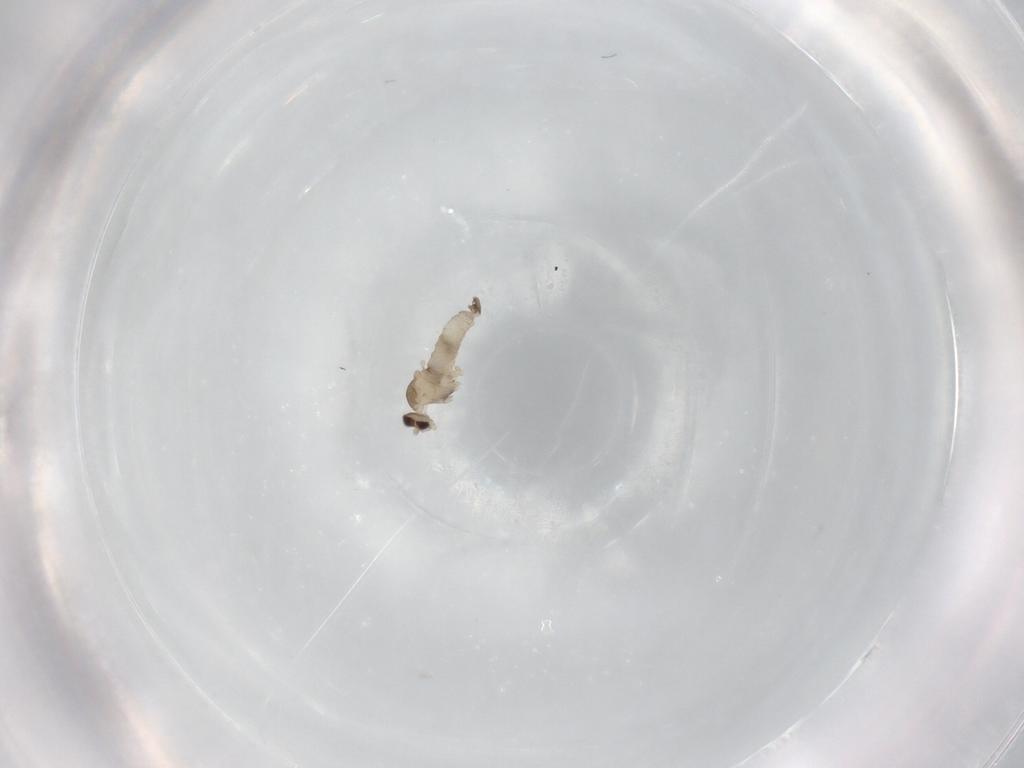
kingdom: Animalia
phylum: Arthropoda
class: Insecta
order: Diptera
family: Cecidomyiidae
